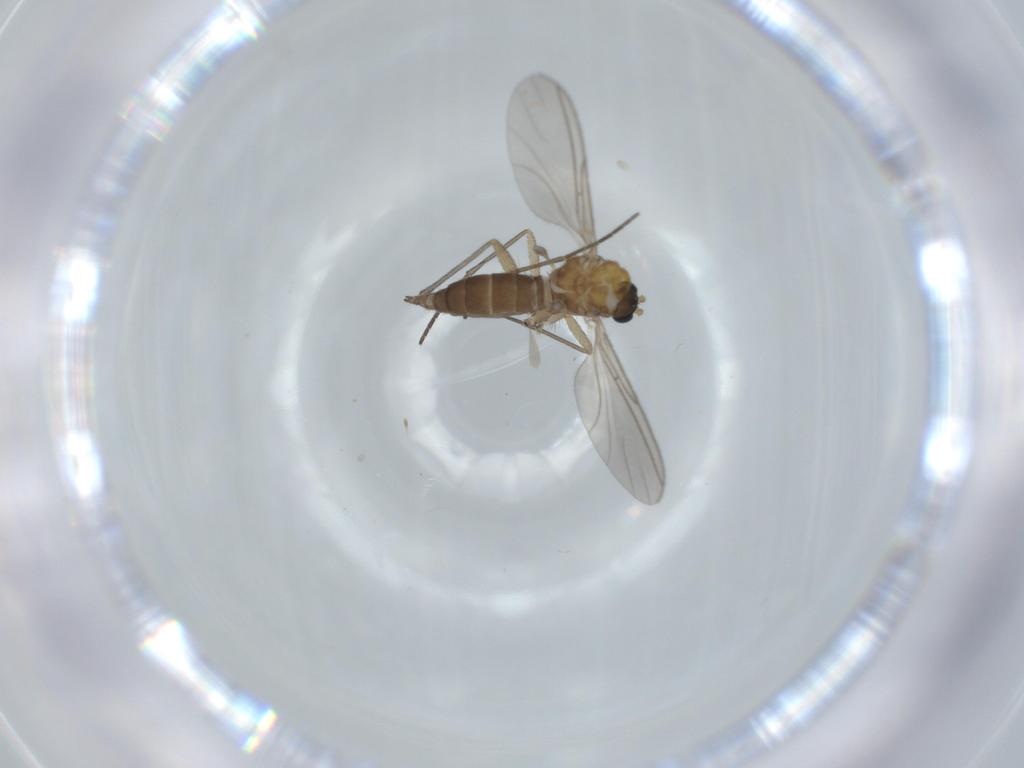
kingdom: Animalia
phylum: Arthropoda
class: Insecta
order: Diptera
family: Sciaridae
